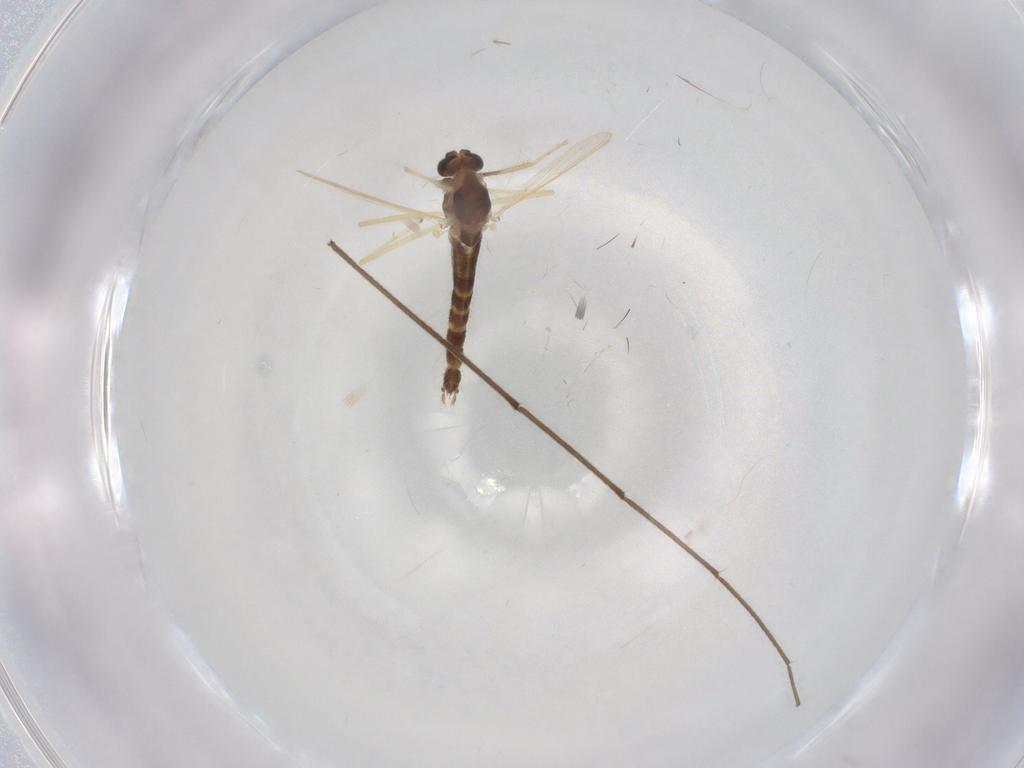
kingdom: Animalia
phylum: Arthropoda
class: Insecta
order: Diptera
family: Chironomidae
